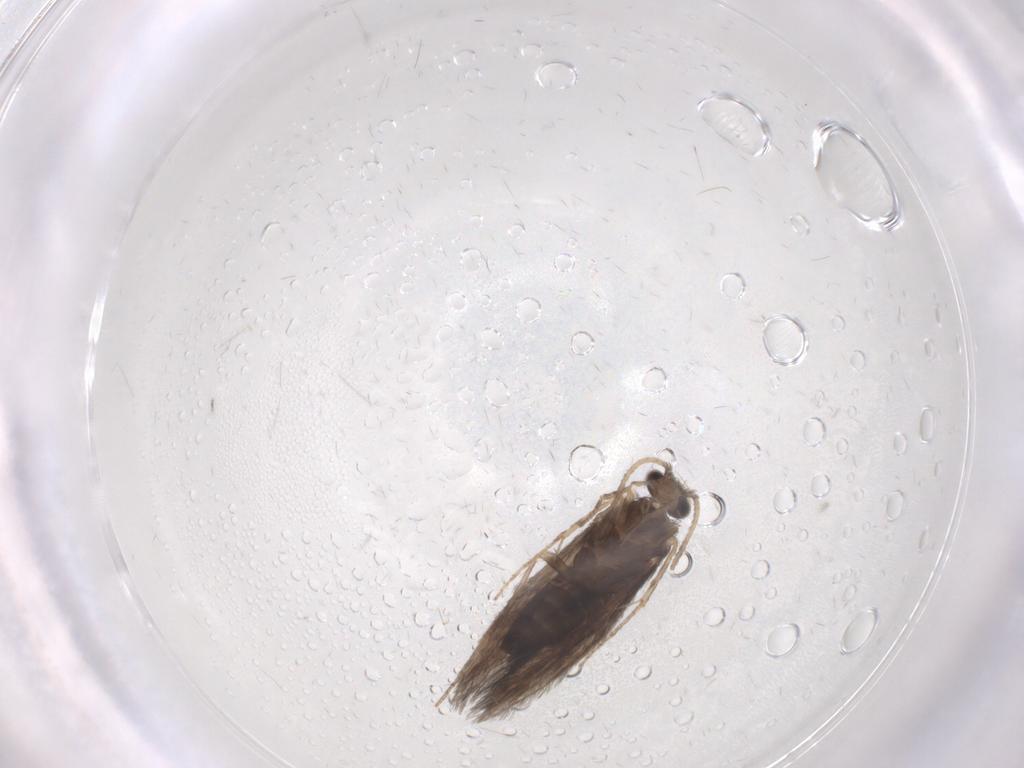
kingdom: Animalia
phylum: Arthropoda
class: Insecta
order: Trichoptera
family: Hydroptilidae
